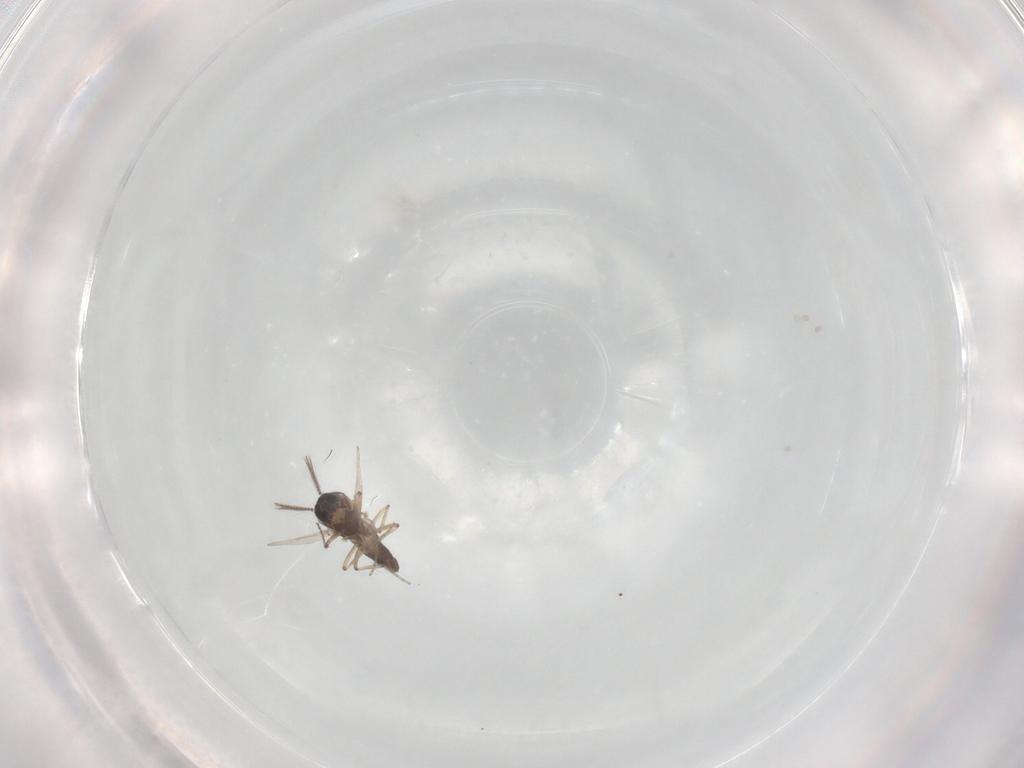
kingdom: Animalia
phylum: Arthropoda
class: Insecta
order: Diptera
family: Ceratopogonidae
